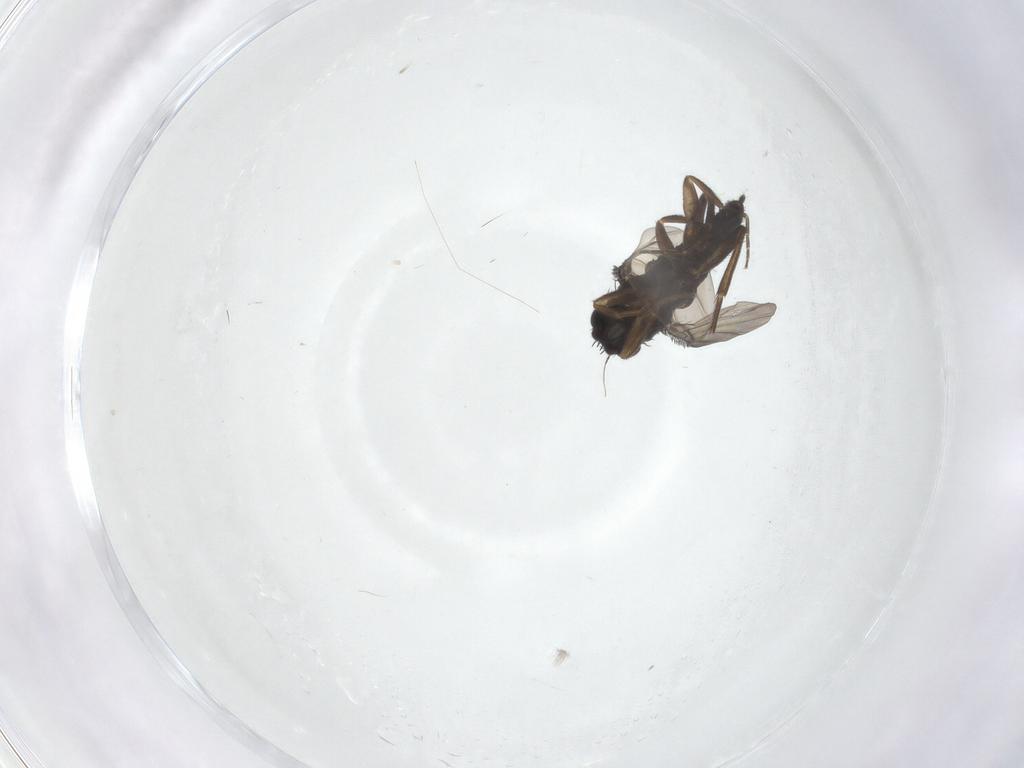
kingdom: Animalia
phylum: Arthropoda
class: Insecta
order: Diptera
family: Phoridae
